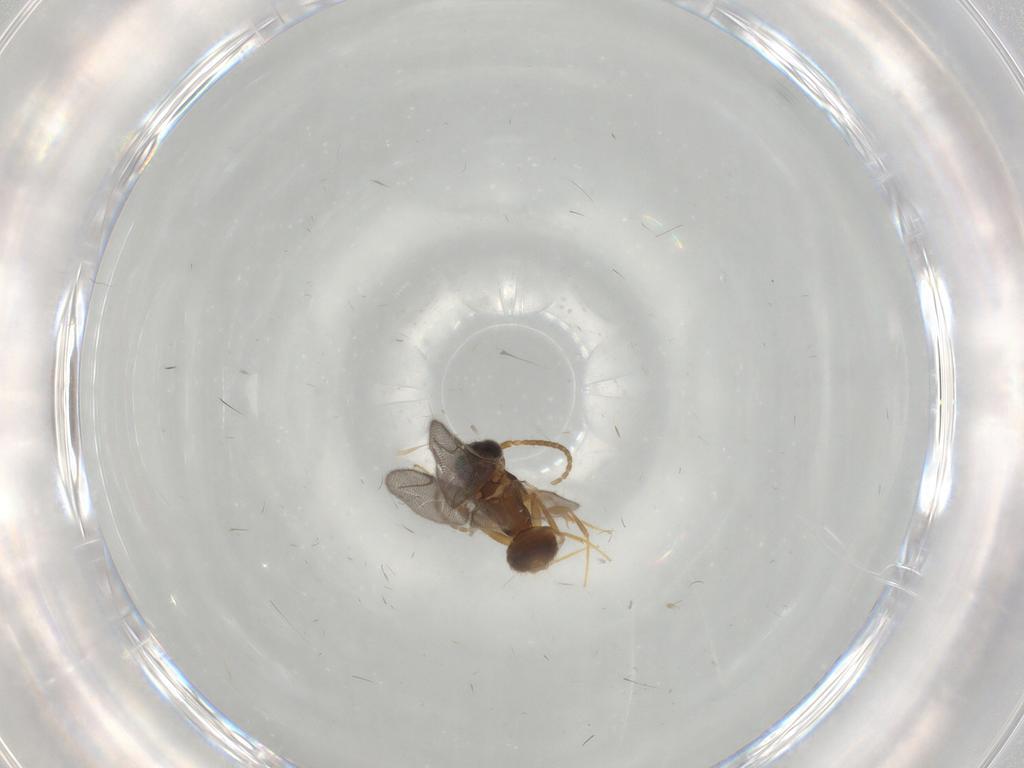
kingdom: Animalia
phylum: Arthropoda
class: Insecta
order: Hymenoptera
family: Bethylidae
